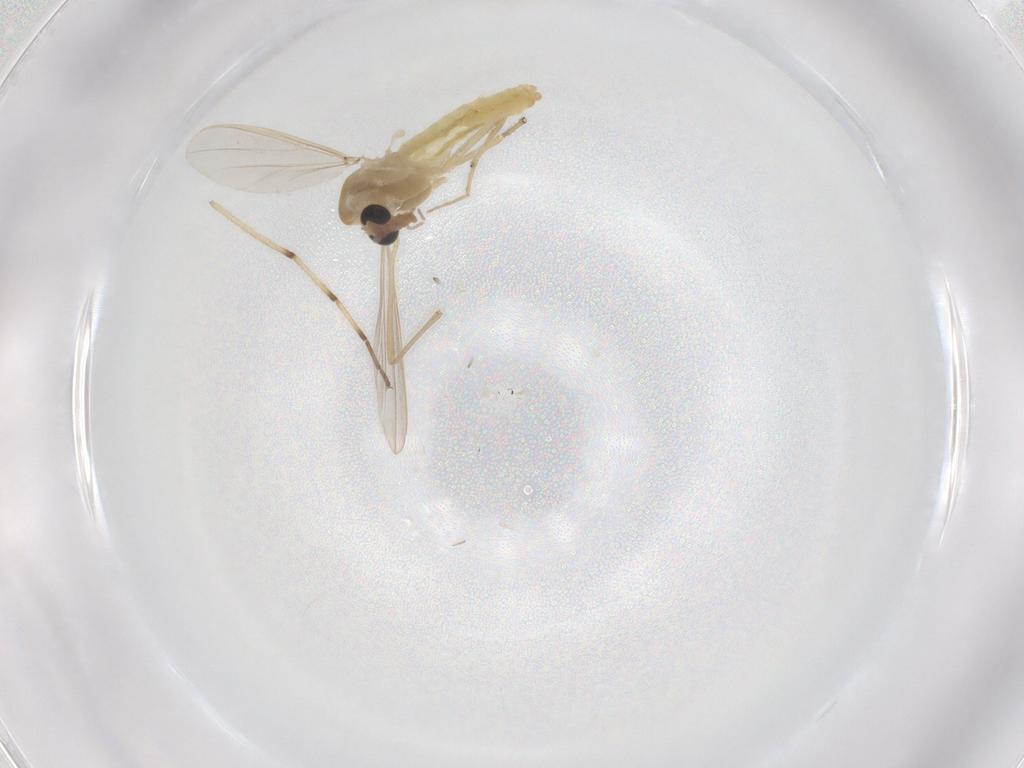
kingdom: Animalia
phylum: Arthropoda
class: Insecta
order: Diptera
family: Chironomidae
